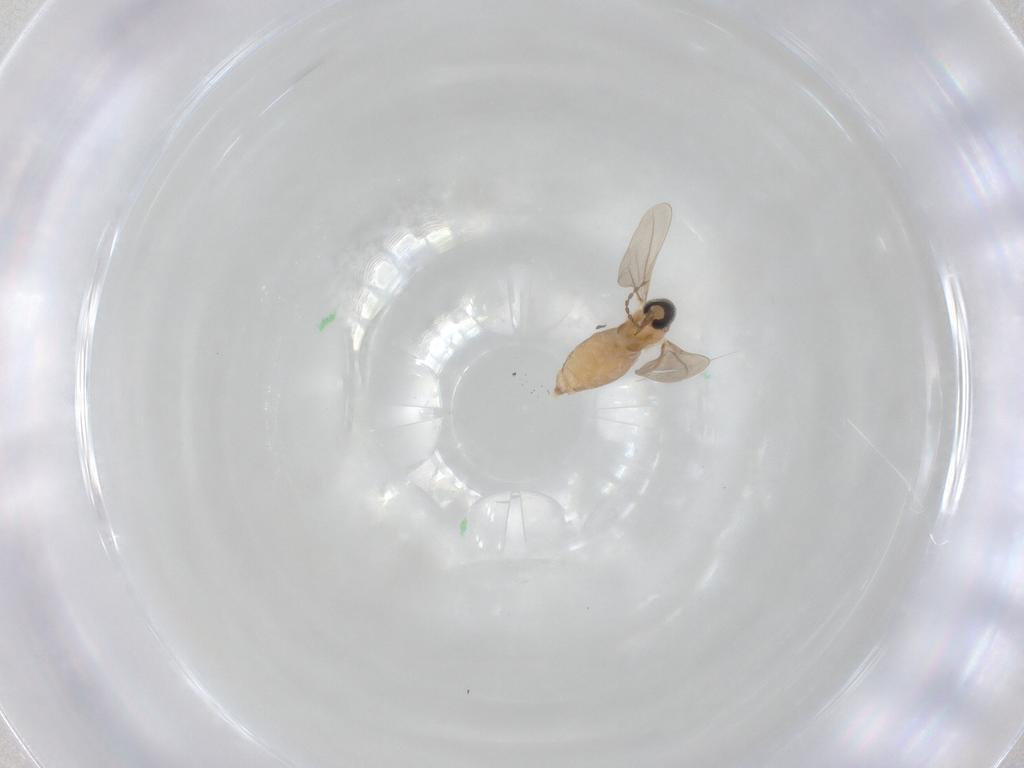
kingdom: Animalia
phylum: Arthropoda
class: Insecta
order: Diptera
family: Cecidomyiidae
